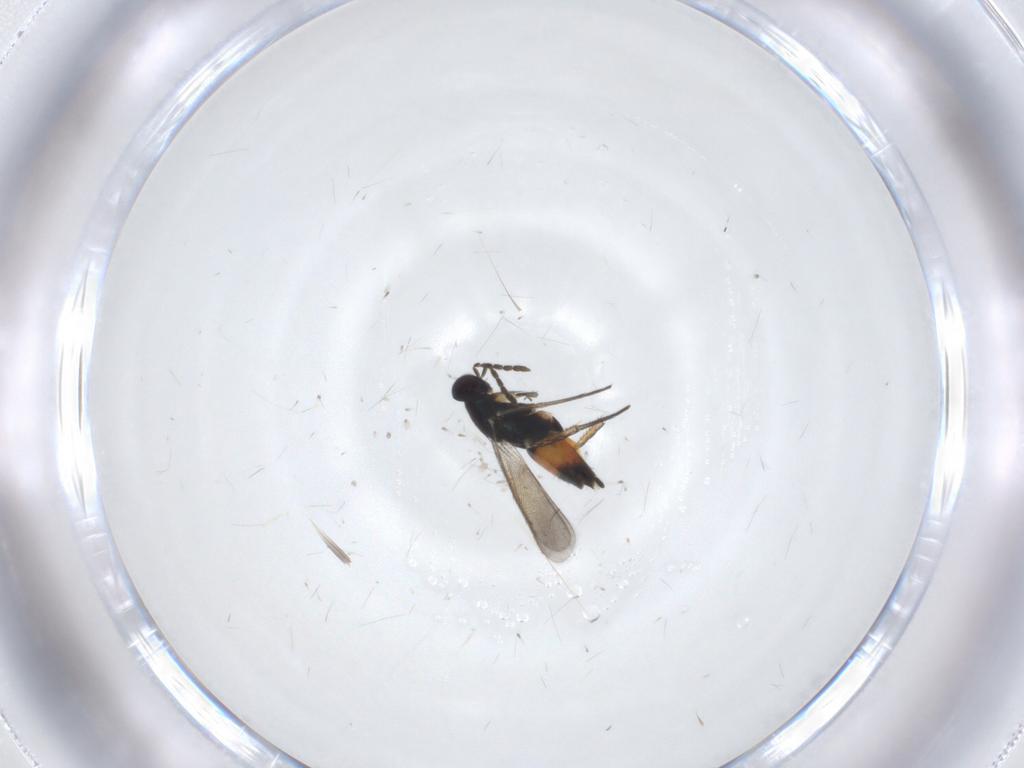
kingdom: Animalia
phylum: Arthropoda
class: Insecta
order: Hymenoptera
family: Eulophidae
